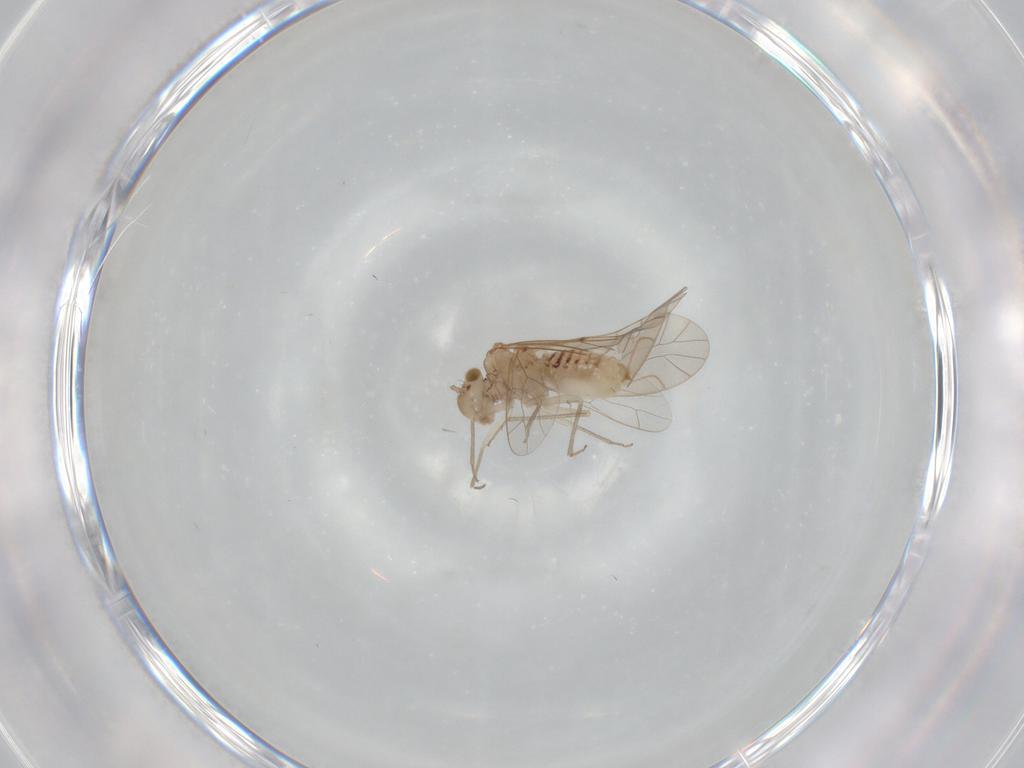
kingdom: Animalia
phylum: Arthropoda
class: Insecta
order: Psocodea
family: Lachesillidae
